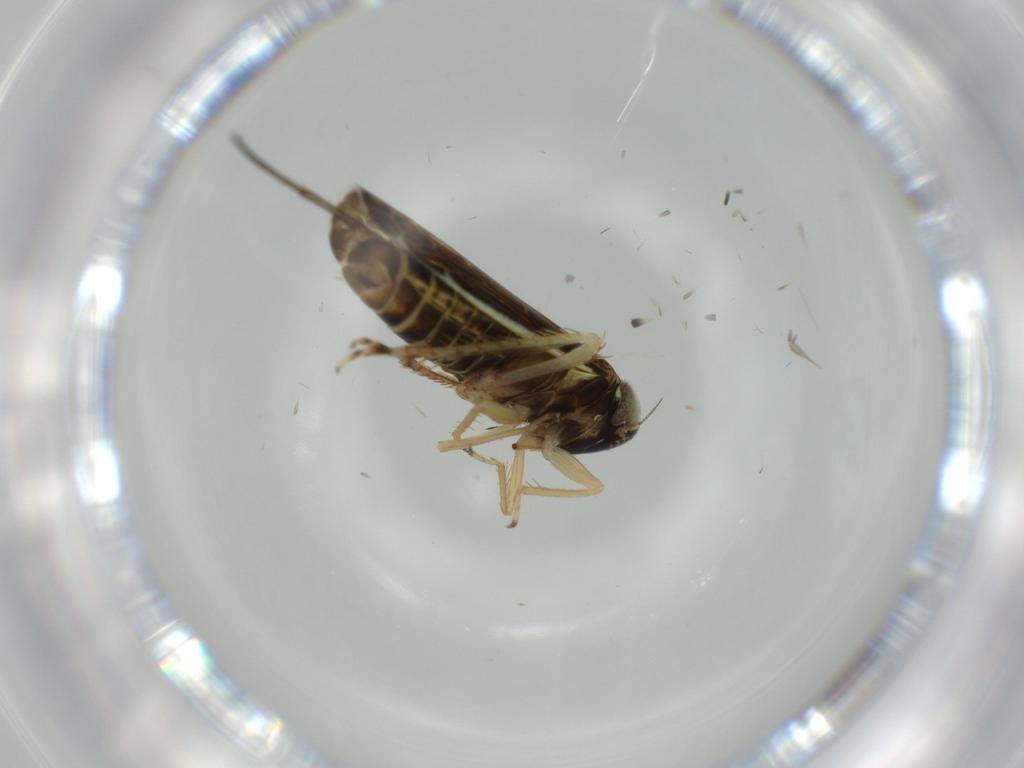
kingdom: Animalia
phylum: Arthropoda
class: Insecta
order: Hemiptera
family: Cicadellidae
